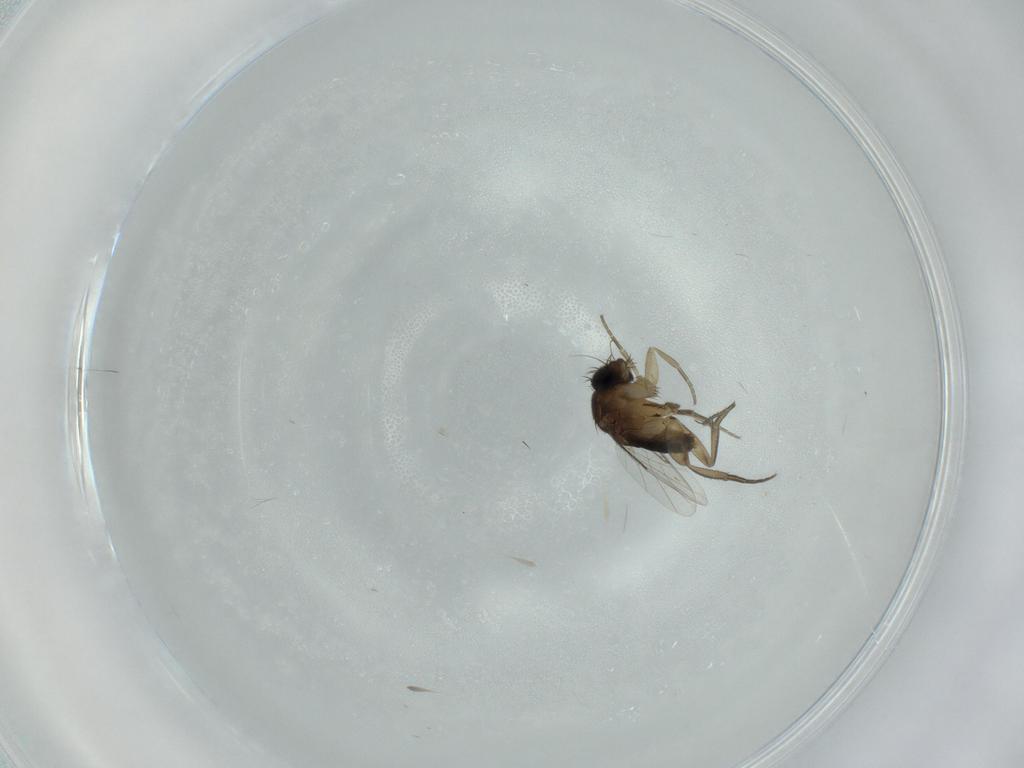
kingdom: Animalia
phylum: Arthropoda
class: Insecta
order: Diptera
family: Phoridae
